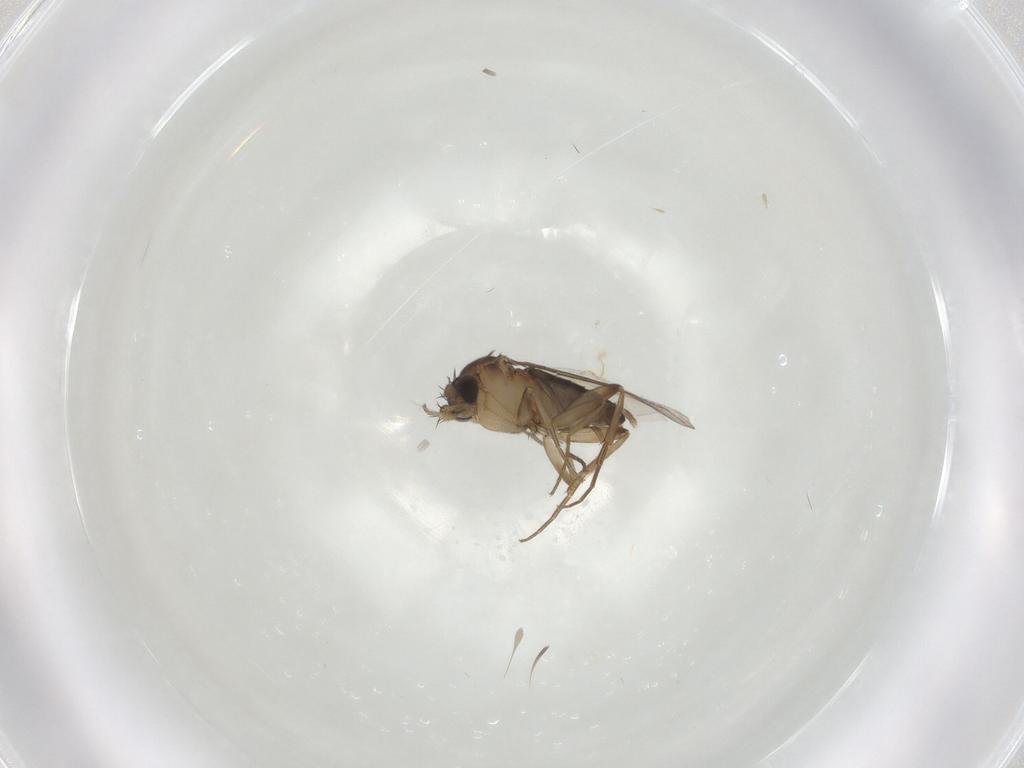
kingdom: Animalia
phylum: Arthropoda
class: Insecta
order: Diptera
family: Phoridae
